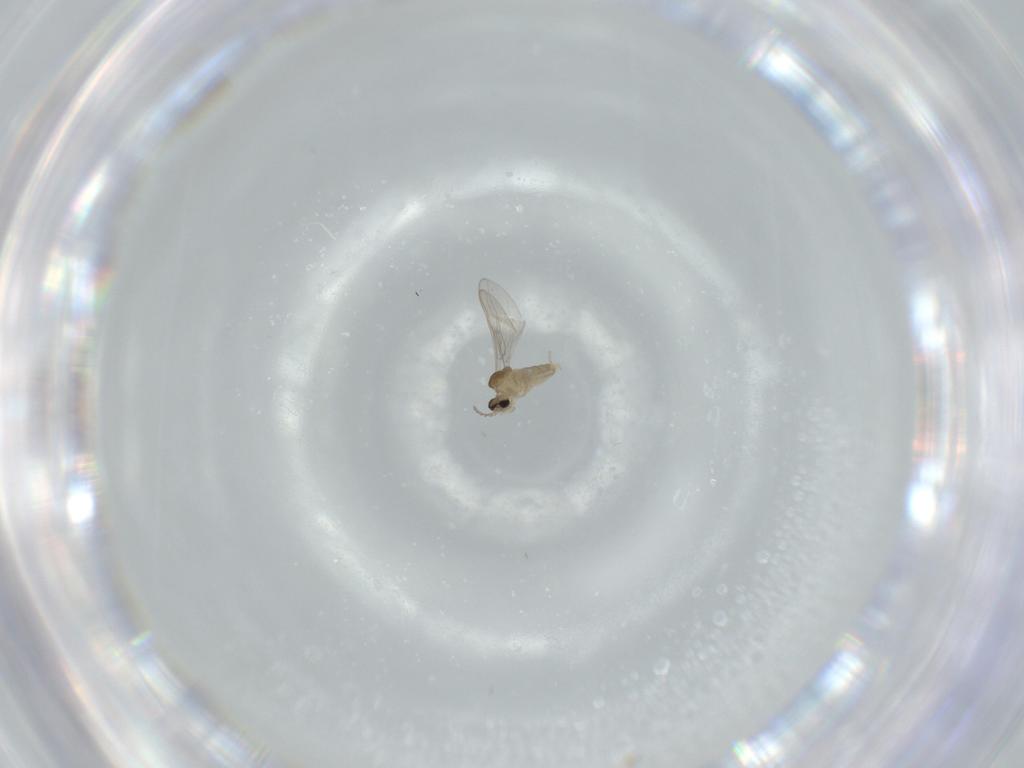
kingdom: Animalia
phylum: Arthropoda
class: Insecta
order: Diptera
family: Cecidomyiidae
